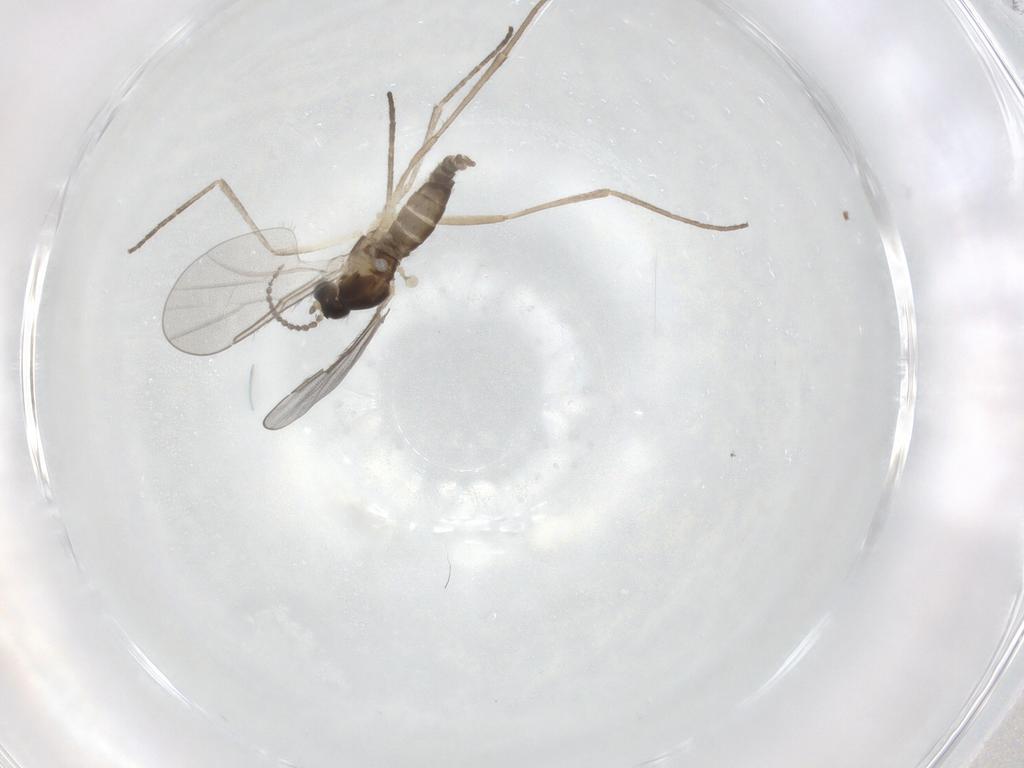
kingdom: Animalia
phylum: Arthropoda
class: Insecta
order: Diptera
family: Cecidomyiidae
